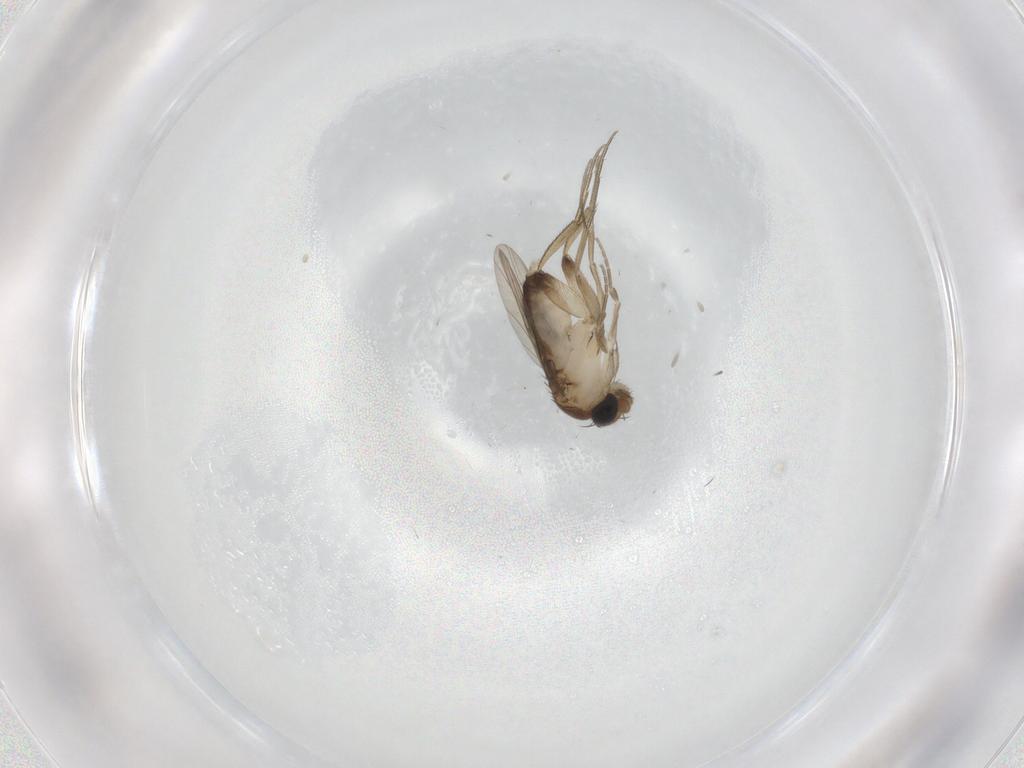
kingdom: Animalia
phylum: Arthropoda
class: Insecta
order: Diptera
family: Phoridae
